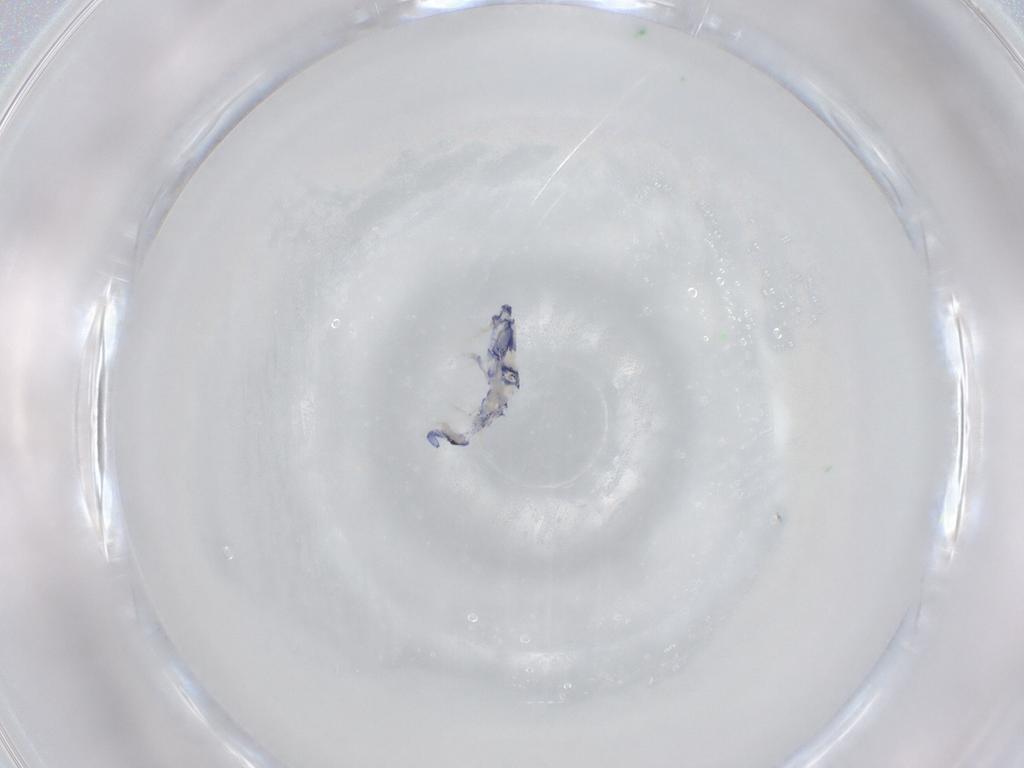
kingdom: Animalia
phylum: Arthropoda
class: Collembola
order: Entomobryomorpha
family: Entomobryidae
